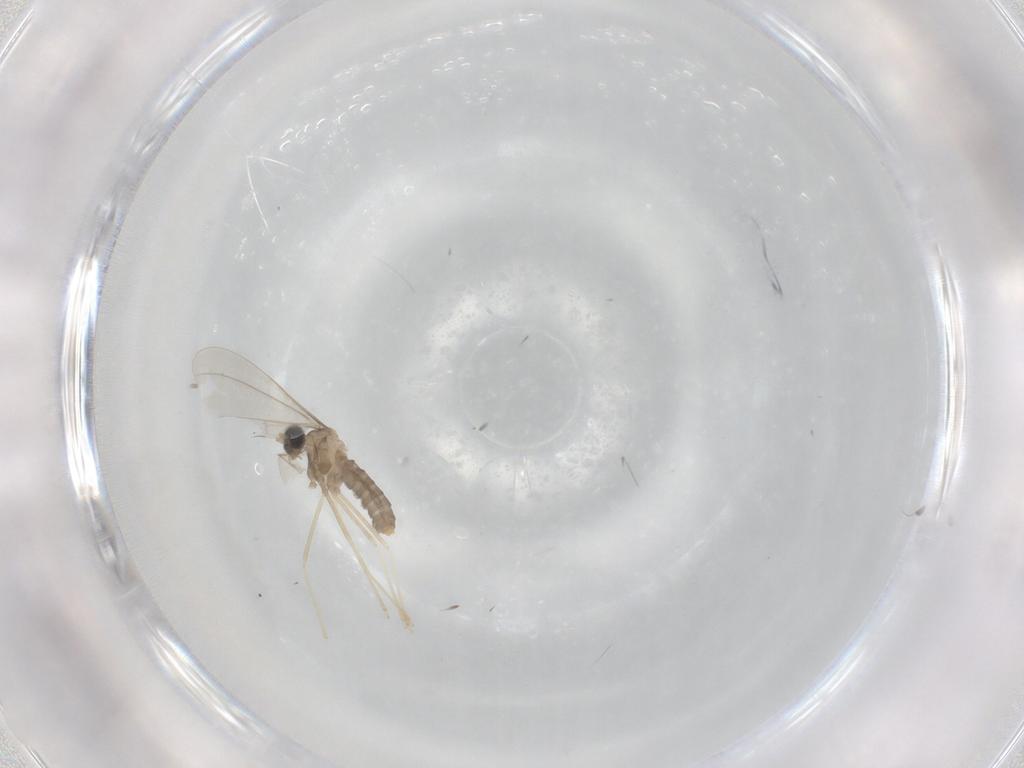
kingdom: Animalia
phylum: Arthropoda
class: Insecta
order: Diptera
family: Cecidomyiidae
